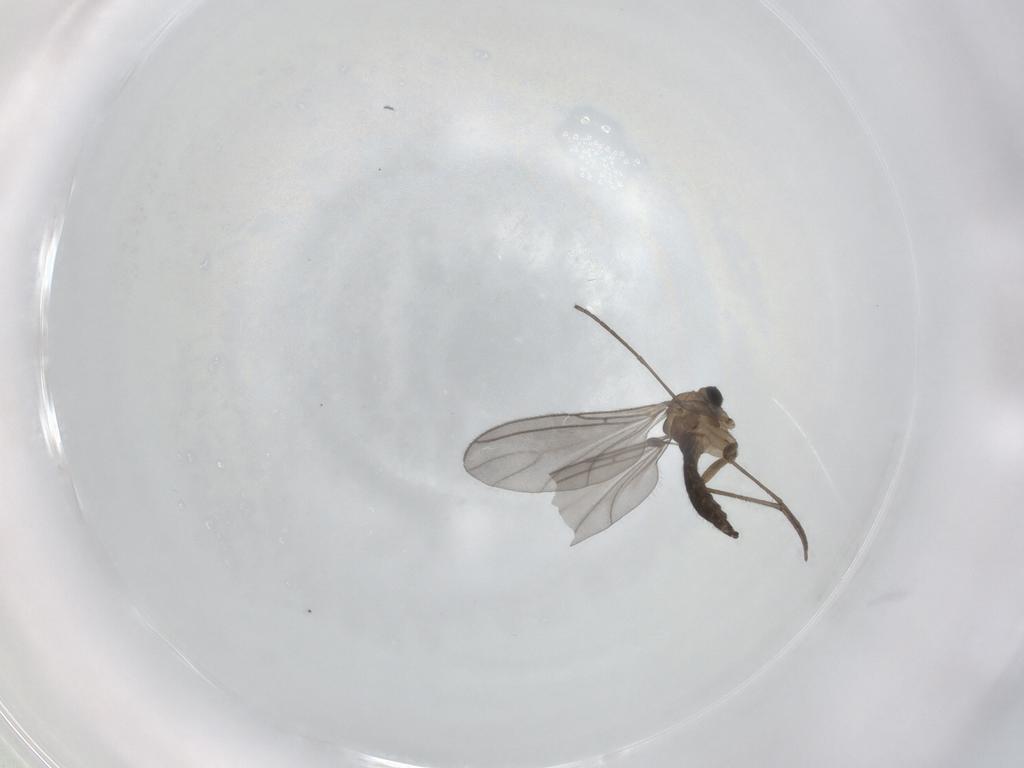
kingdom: Animalia
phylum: Arthropoda
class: Insecta
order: Diptera
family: Sciaridae
